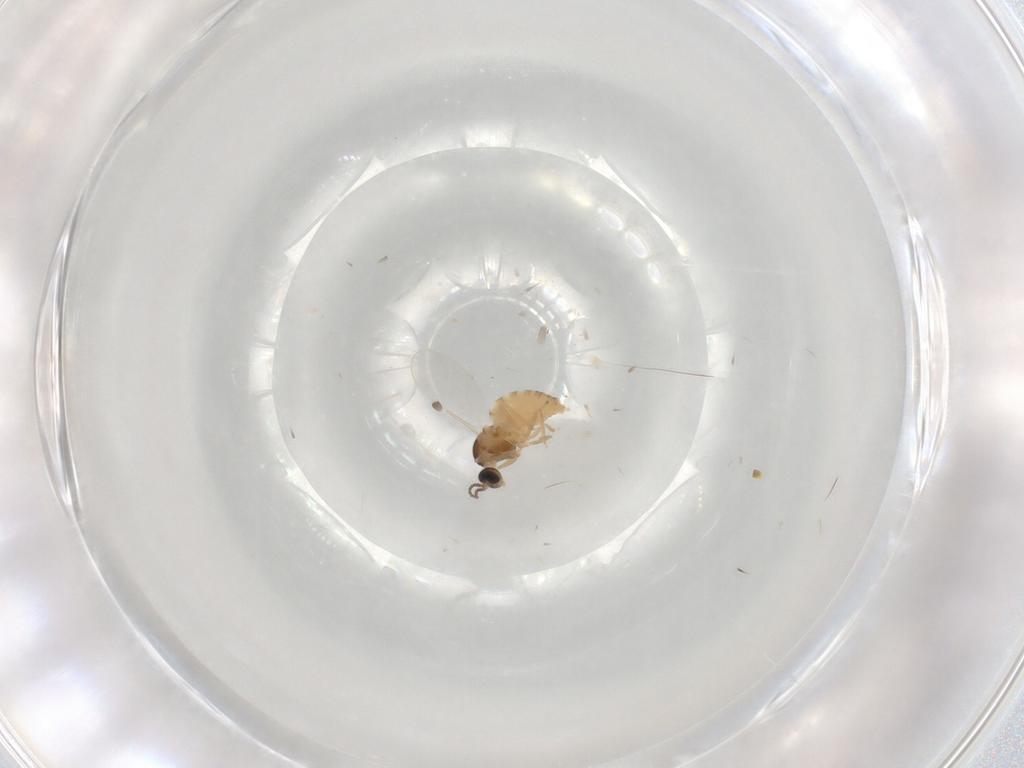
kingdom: Animalia
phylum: Arthropoda
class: Insecta
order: Diptera
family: Cecidomyiidae
